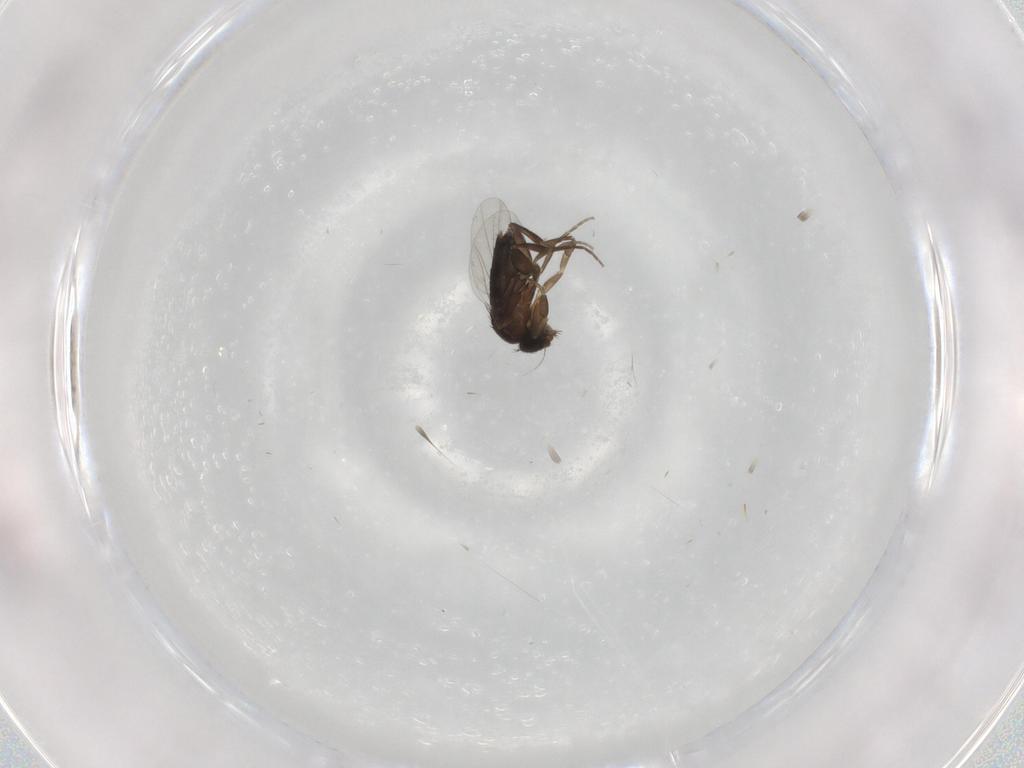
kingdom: Animalia
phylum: Arthropoda
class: Insecta
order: Diptera
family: Phoridae
